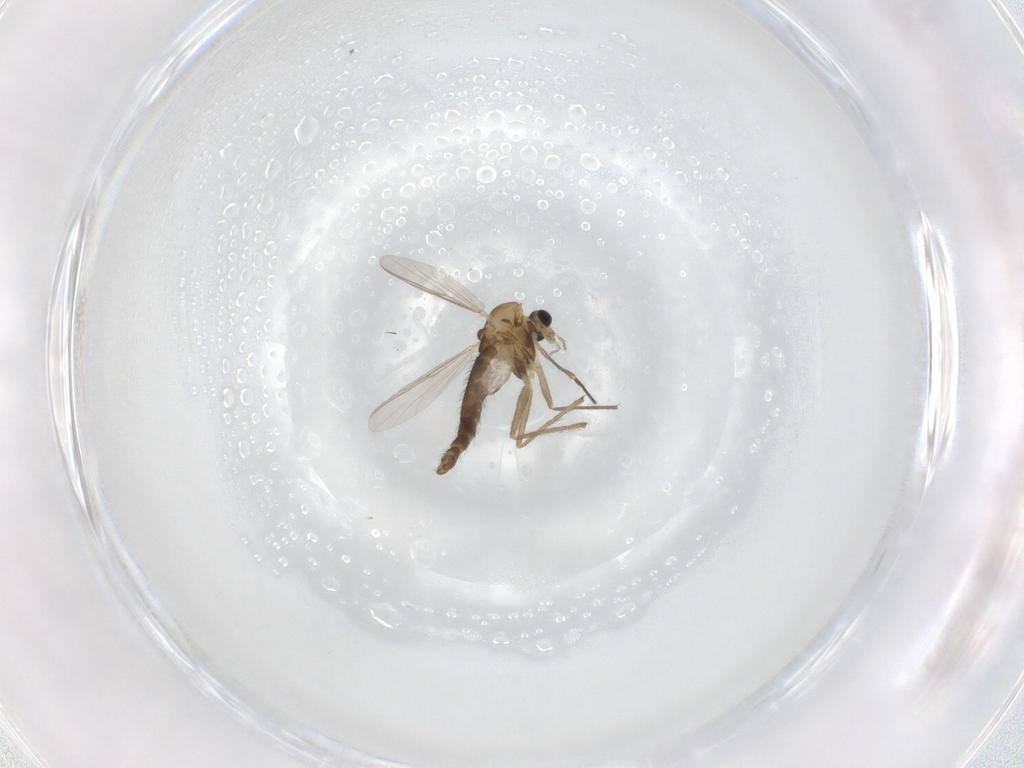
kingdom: Animalia
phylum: Arthropoda
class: Insecta
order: Diptera
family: Chironomidae
